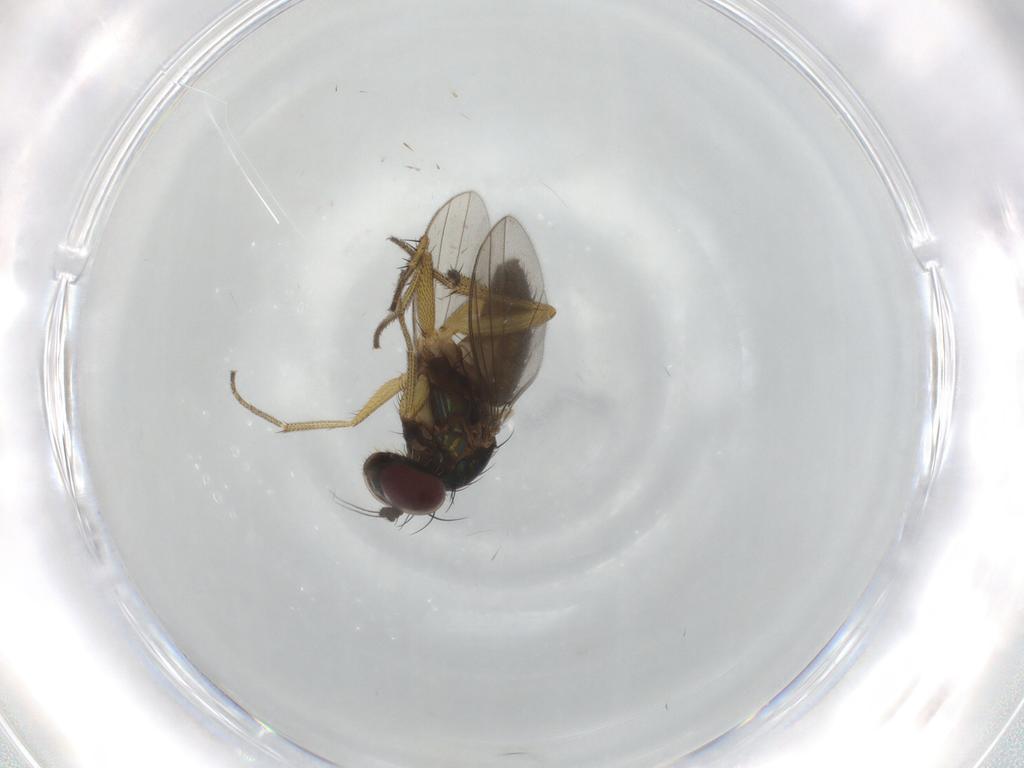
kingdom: Animalia
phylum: Arthropoda
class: Insecta
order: Diptera
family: Dolichopodidae
